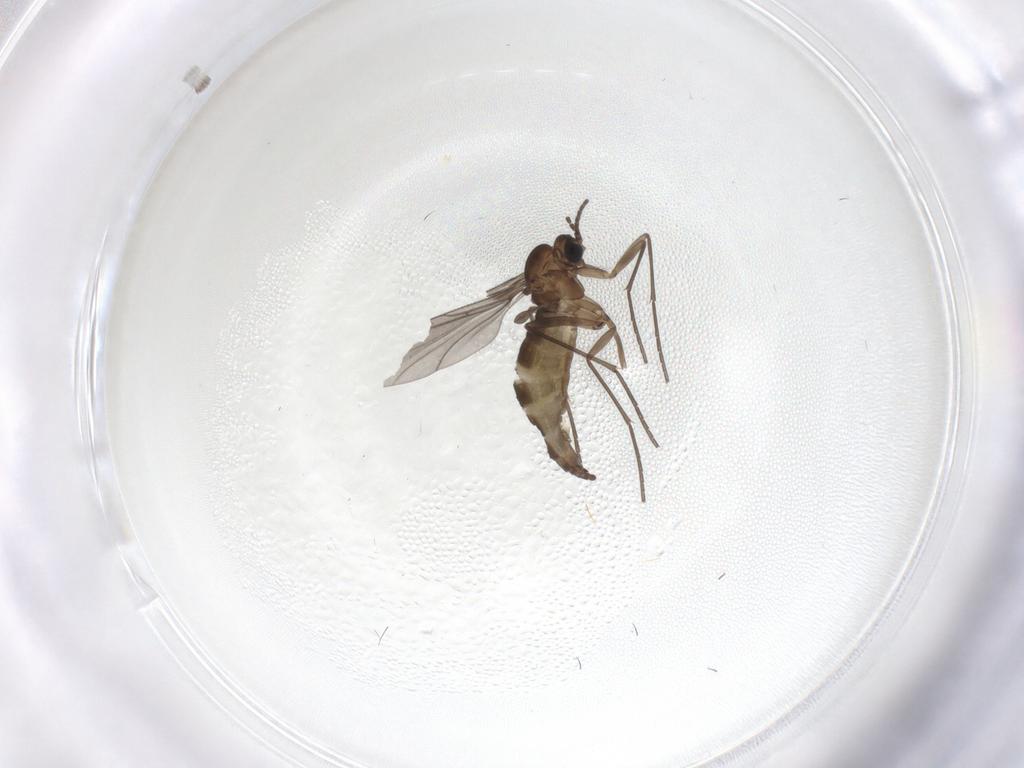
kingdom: Animalia
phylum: Arthropoda
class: Insecta
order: Diptera
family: Sciaridae
